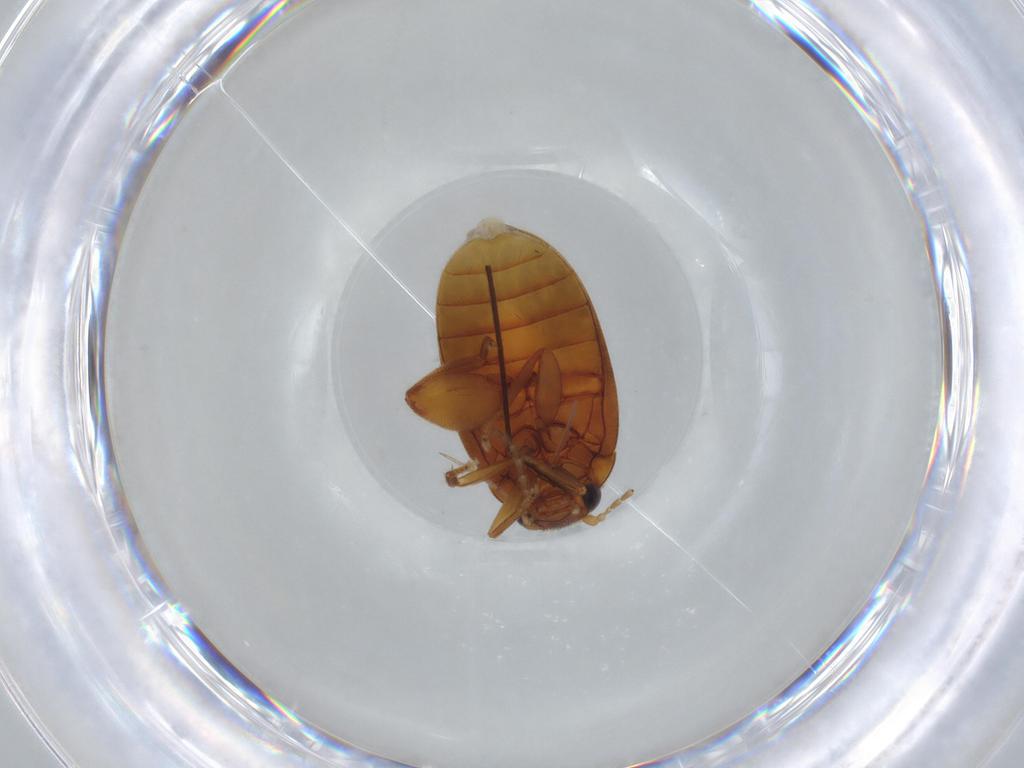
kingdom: Animalia
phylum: Arthropoda
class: Insecta
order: Coleoptera
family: Scirtidae
